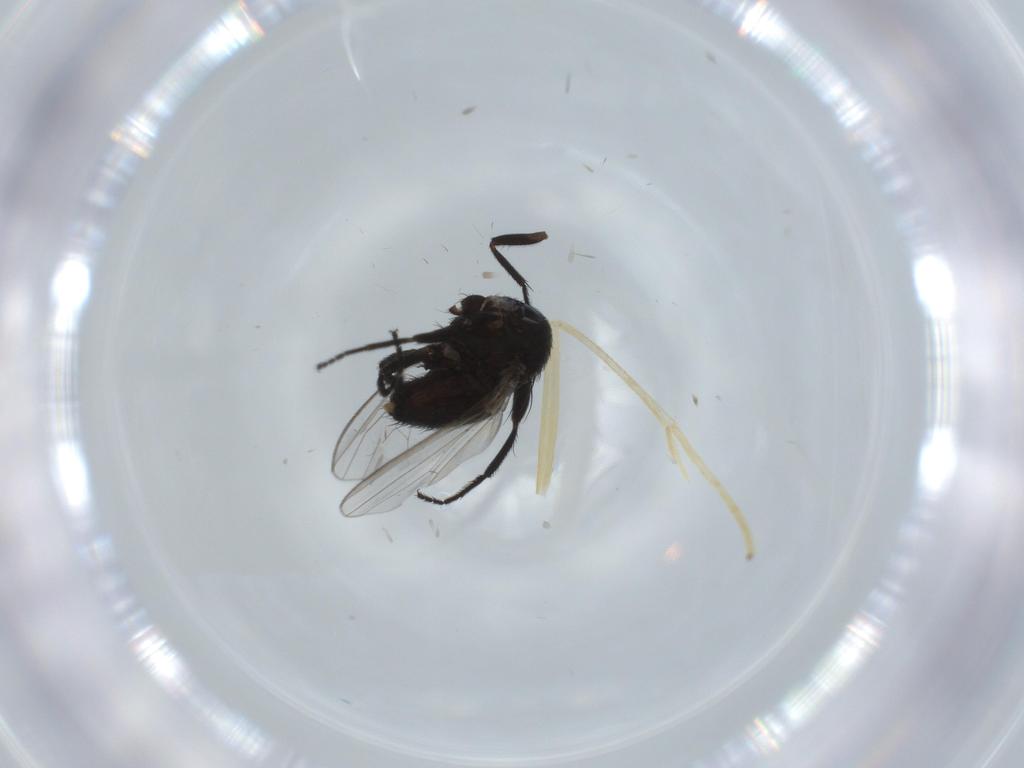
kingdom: Animalia
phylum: Arthropoda
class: Insecta
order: Diptera
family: Milichiidae
